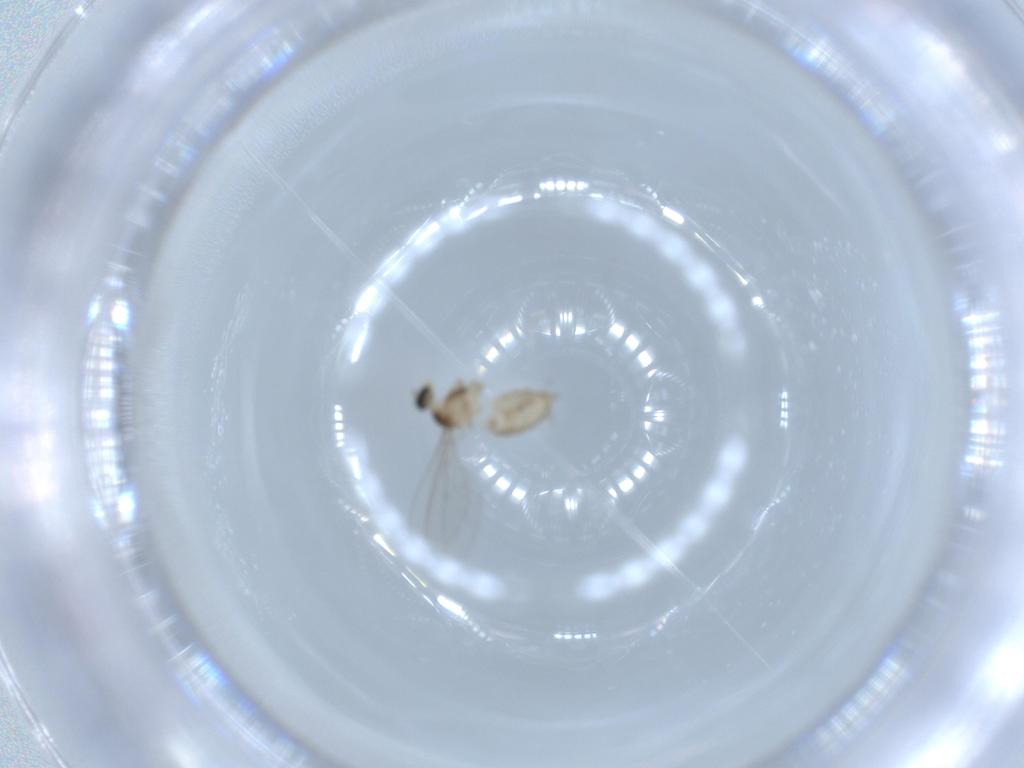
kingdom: Animalia
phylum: Arthropoda
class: Insecta
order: Diptera
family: Cecidomyiidae
